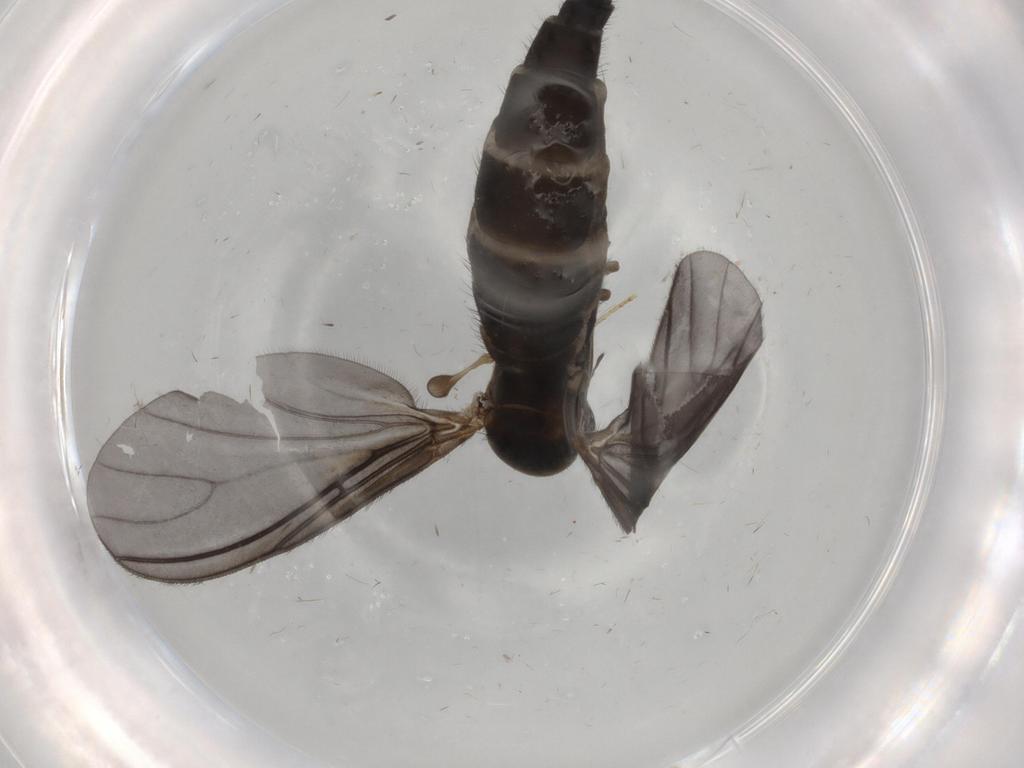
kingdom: Animalia
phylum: Arthropoda
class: Insecta
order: Diptera
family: Sciaridae
